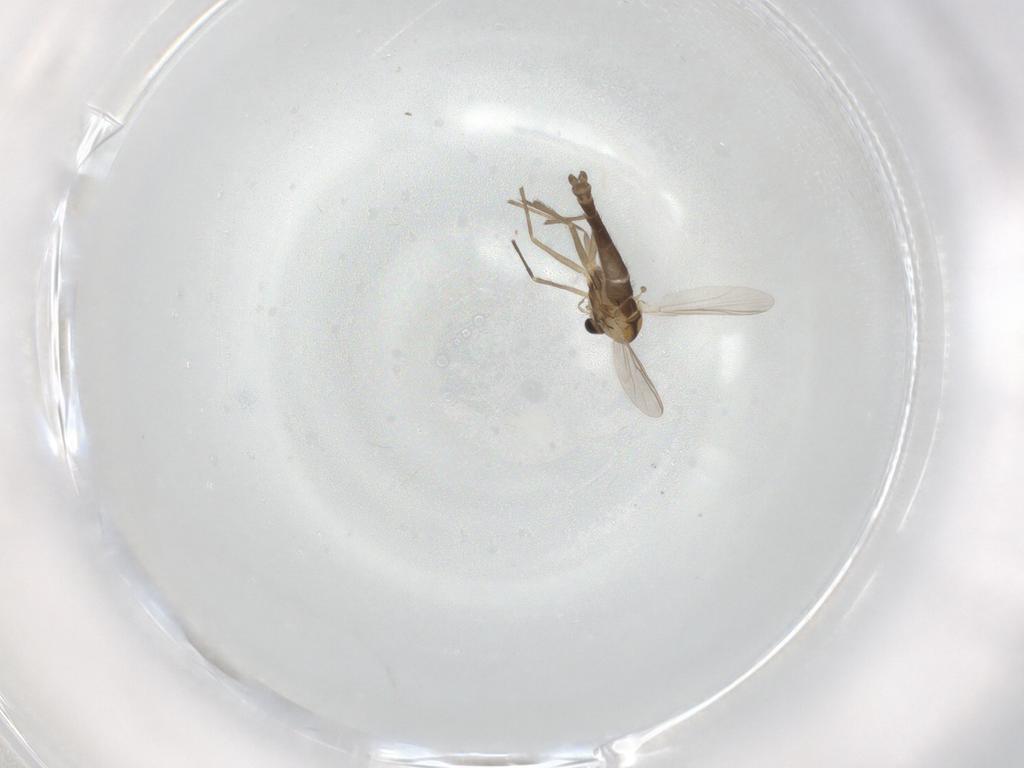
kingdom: Animalia
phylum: Arthropoda
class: Insecta
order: Diptera
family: Chironomidae
